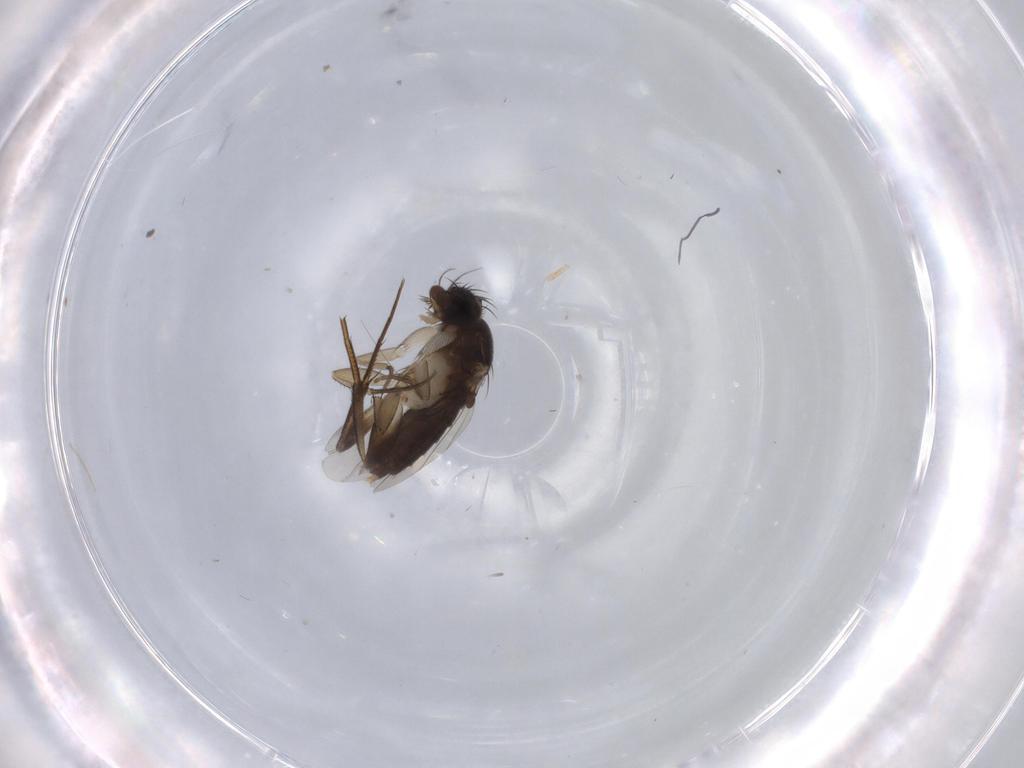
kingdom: Animalia
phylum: Arthropoda
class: Insecta
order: Diptera
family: Phoridae
